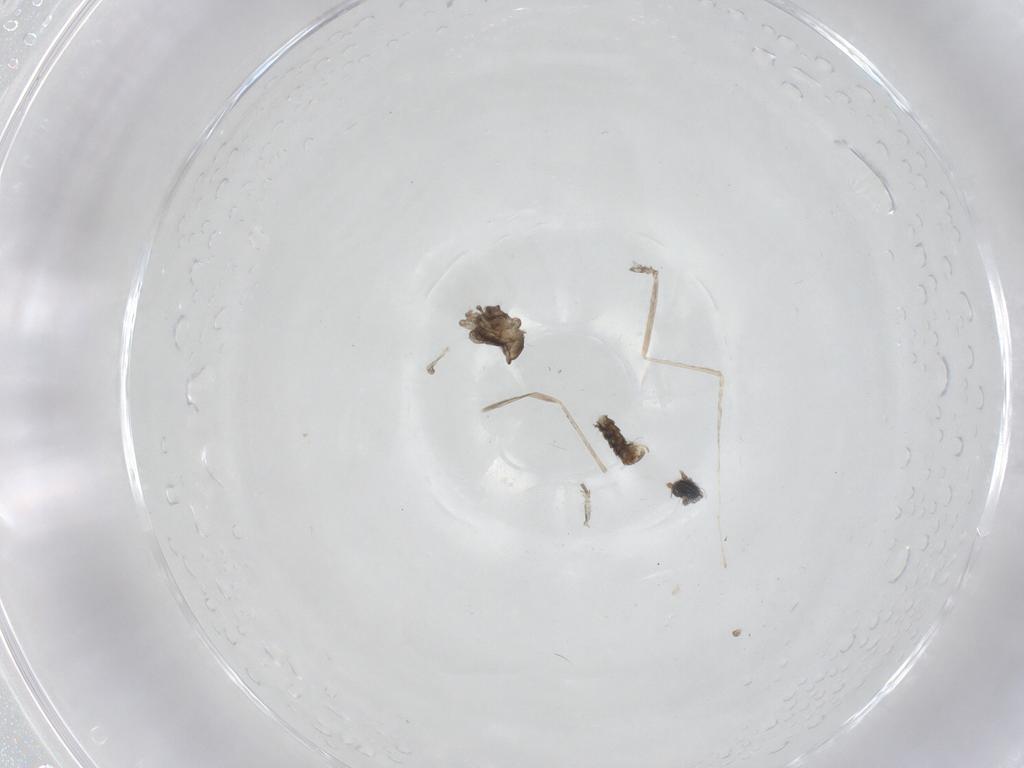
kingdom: Animalia
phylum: Arthropoda
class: Insecta
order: Diptera
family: Cecidomyiidae
